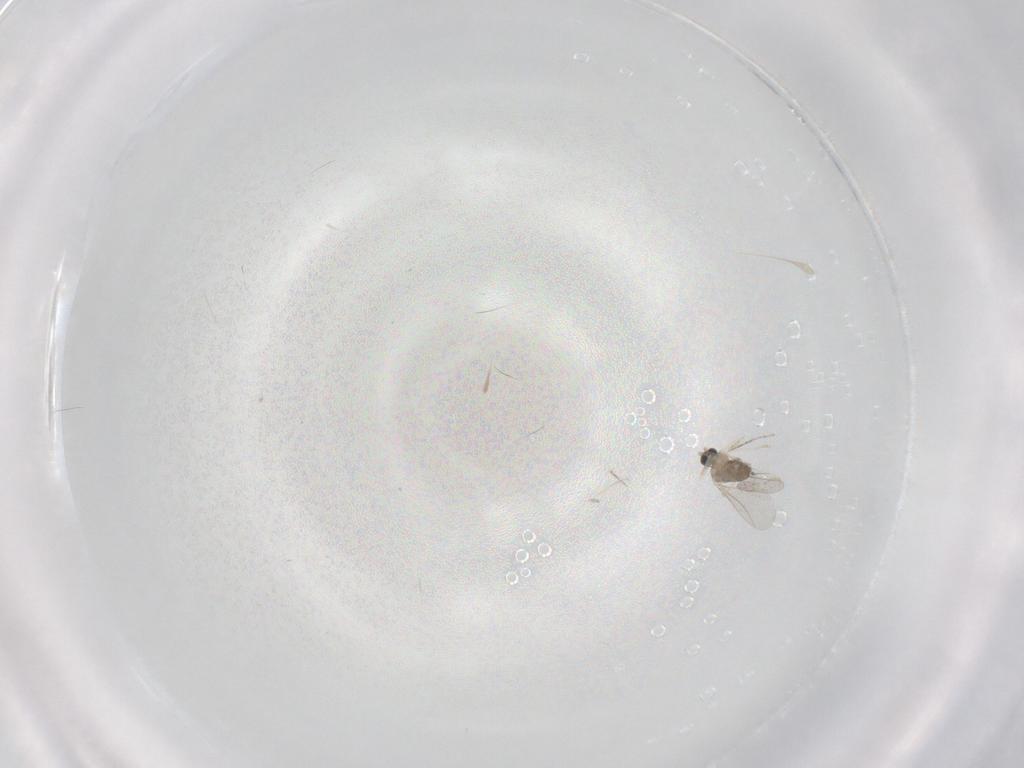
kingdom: Animalia
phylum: Arthropoda
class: Insecta
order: Diptera
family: Cecidomyiidae
